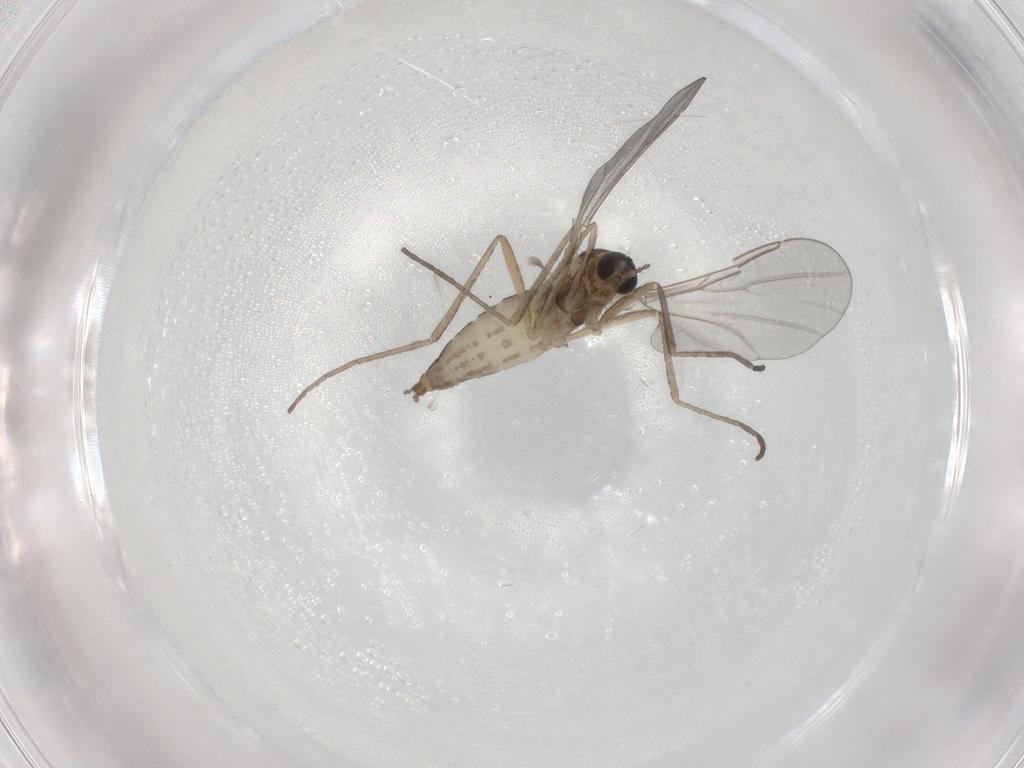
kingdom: Animalia
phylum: Arthropoda
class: Insecta
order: Diptera
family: Cecidomyiidae
